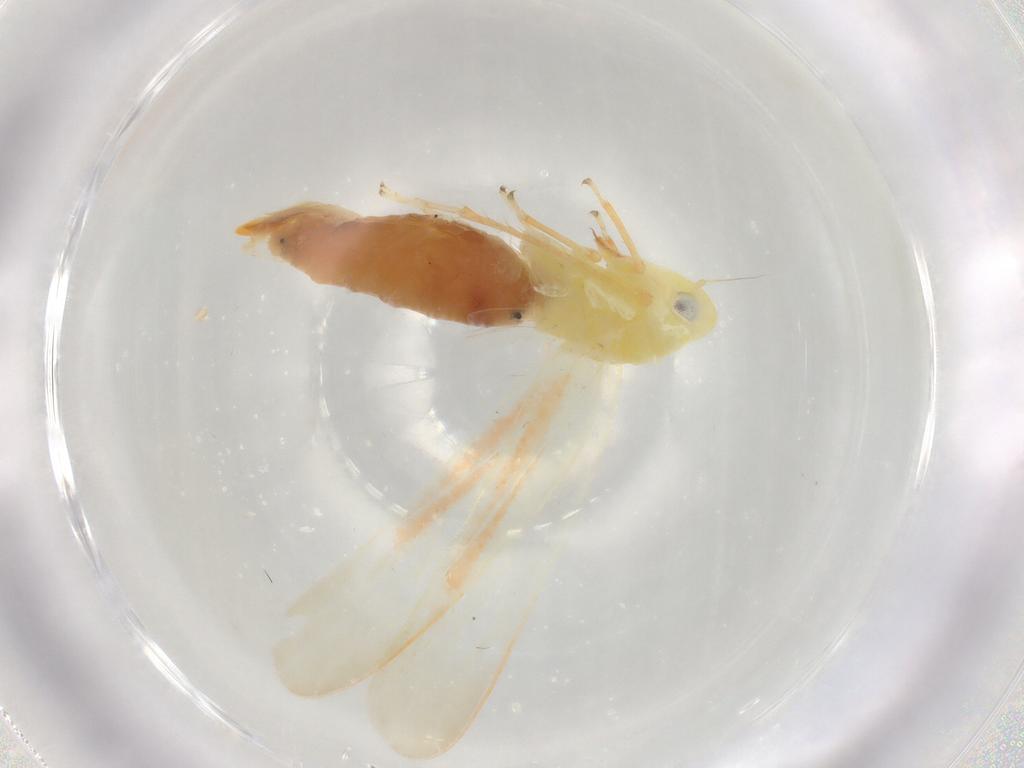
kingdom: Animalia
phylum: Arthropoda
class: Insecta
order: Hemiptera
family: Cicadellidae
